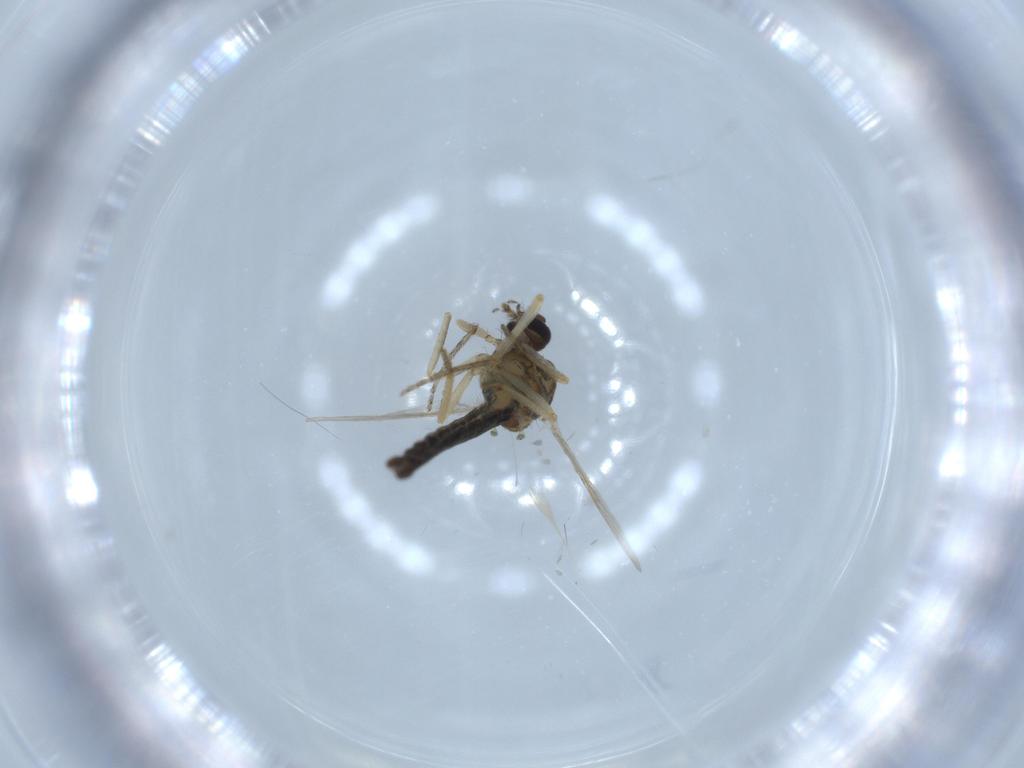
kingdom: Animalia
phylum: Arthropoda
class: Insecta
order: Diptera
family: Ceratopogonidae
